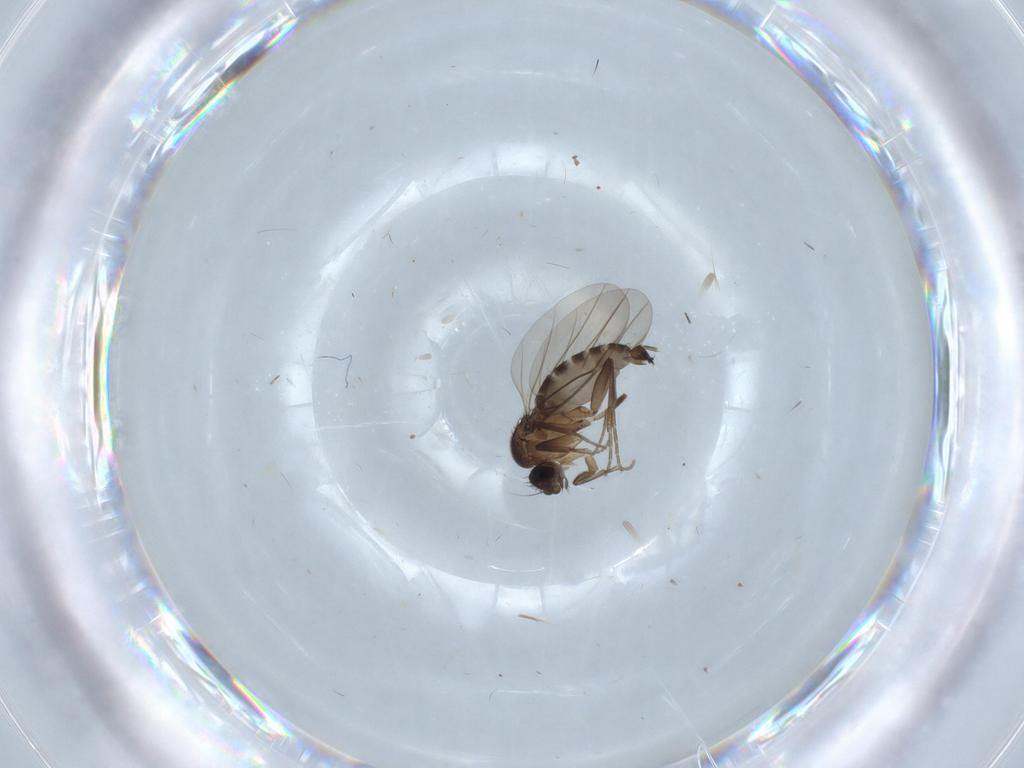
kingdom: Animalia
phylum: Arthropoda
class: Insecta
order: Diptera
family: Phoridae
